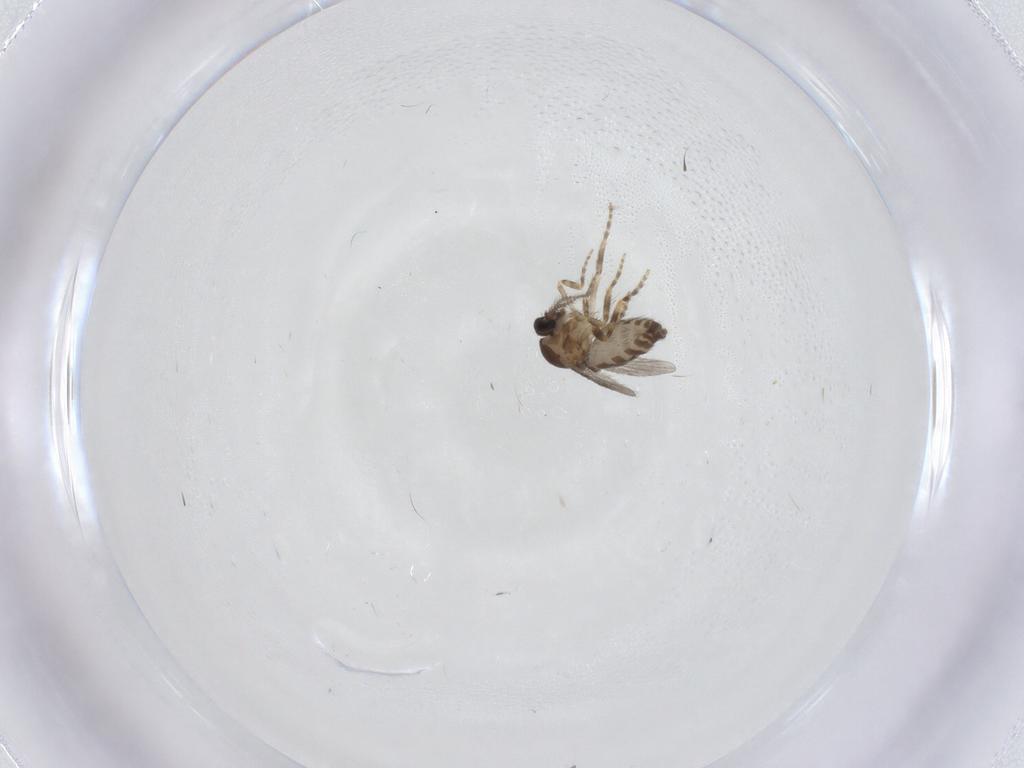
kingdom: Animalia
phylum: Arthropoda
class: Insecta
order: Diptera
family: Ceratopogonidae
